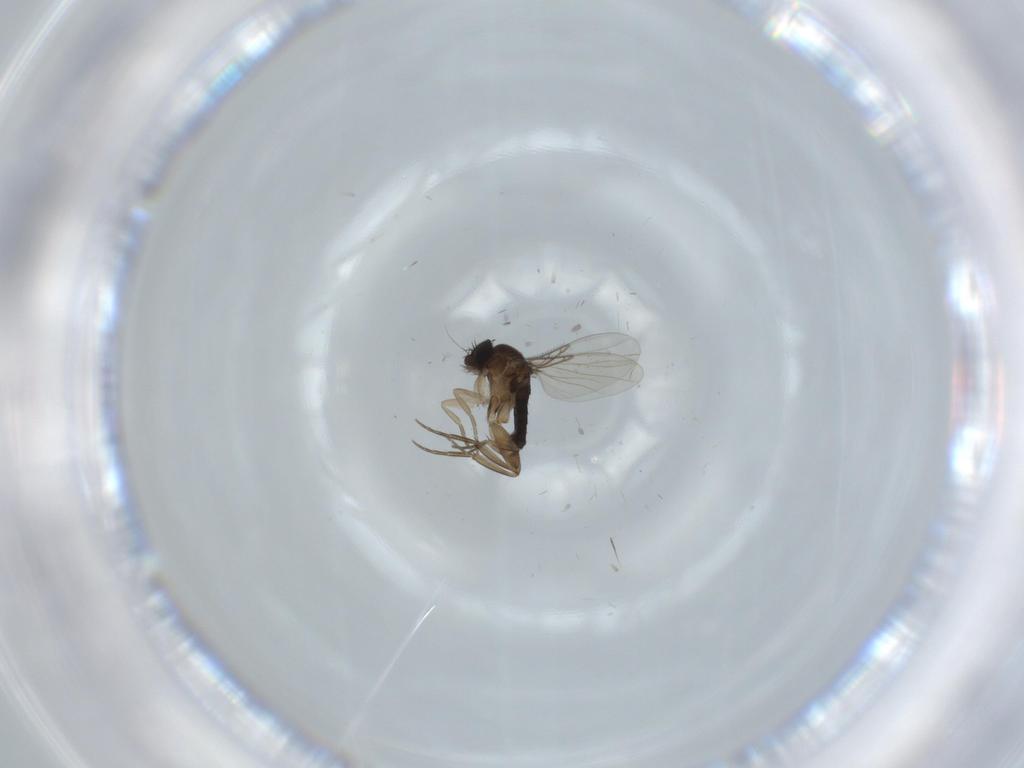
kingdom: Animalia
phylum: Arthropoda
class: Insecta
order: Diptera
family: Phoridae
